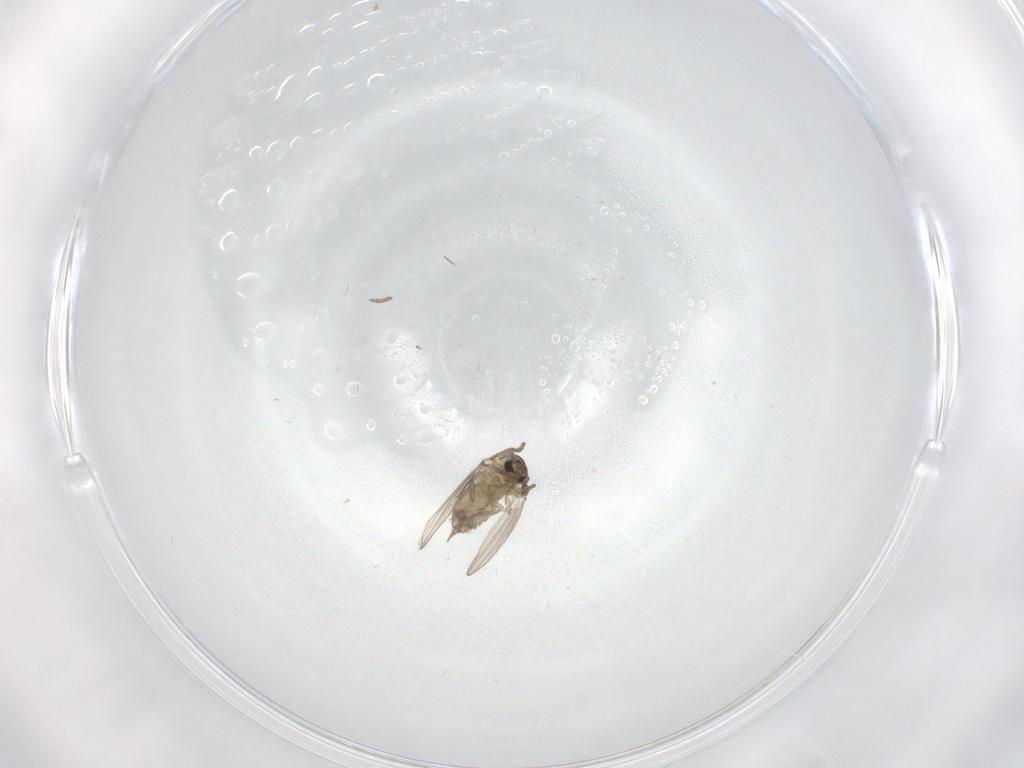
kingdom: Animalia
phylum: Arthropoda
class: Insecta
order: Diptera
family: Psychodidae
